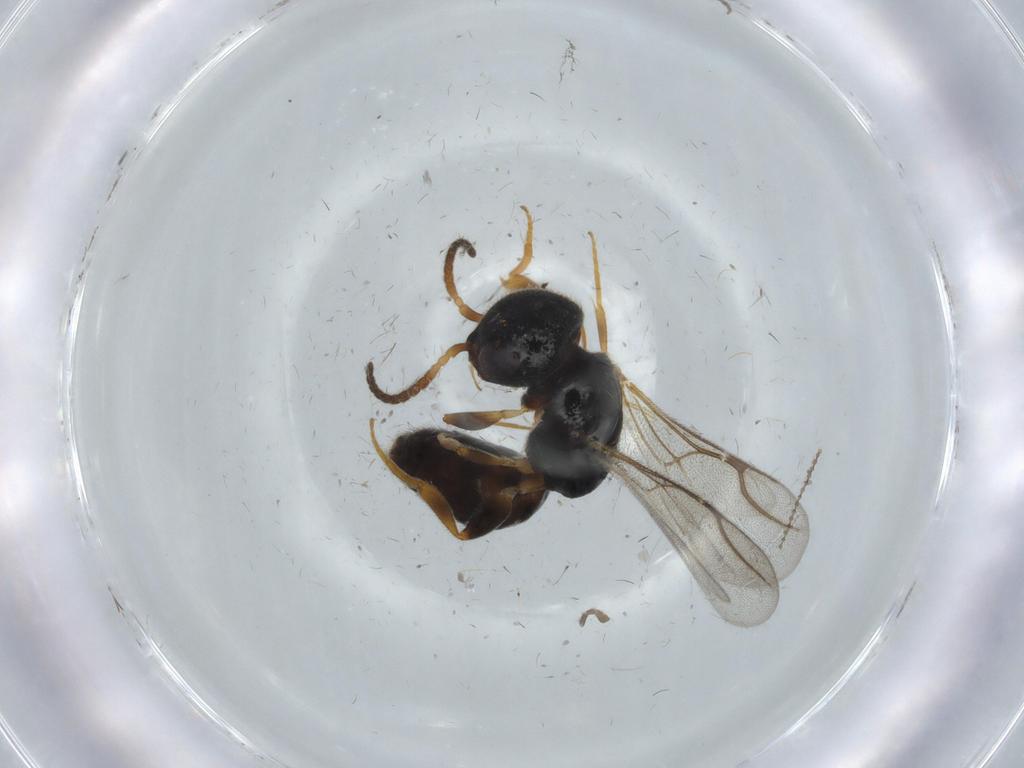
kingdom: Animalia
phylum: Arthropoda
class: Insecta
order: Hymenoptera
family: Bethylidae
